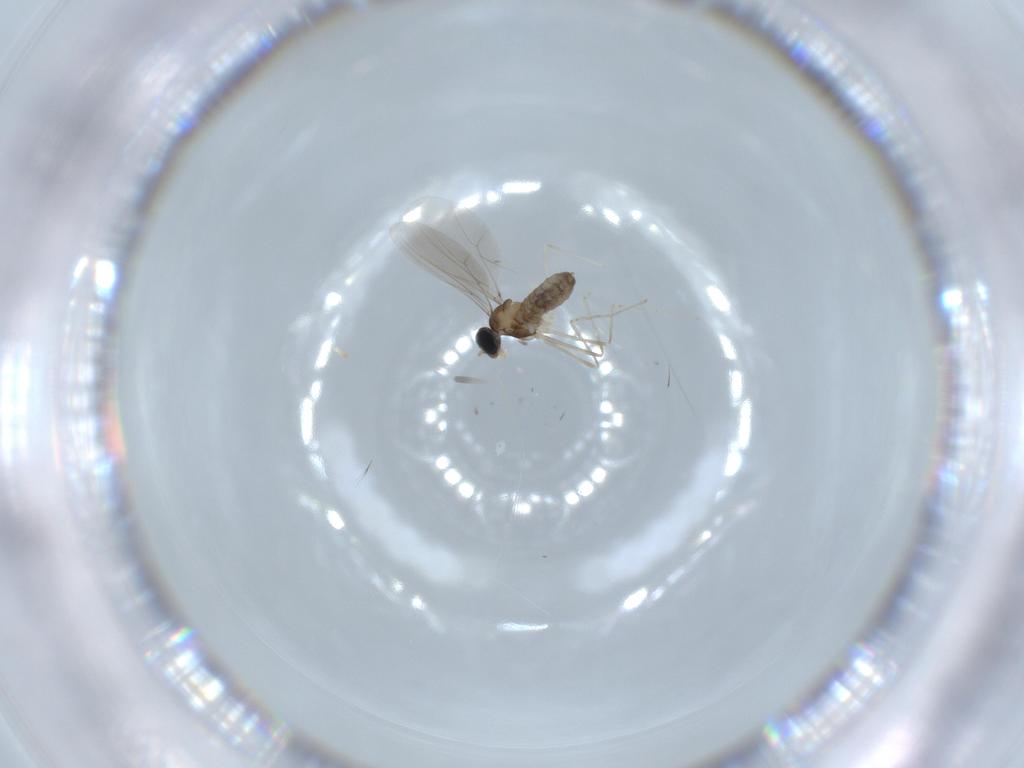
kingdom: Animalia
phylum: Arthropoda
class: Insecta
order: Diptera
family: Cecidomyiidae
